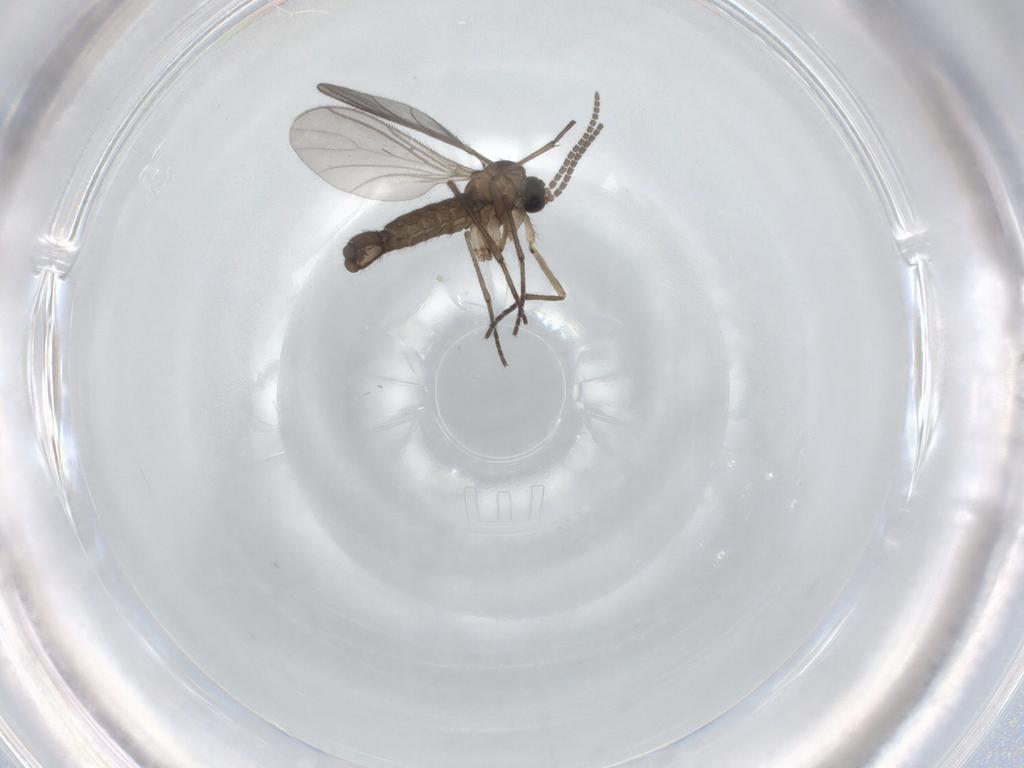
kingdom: Animalia
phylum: Arthropoda
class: Insecta
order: Diptera
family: Sciaridae
